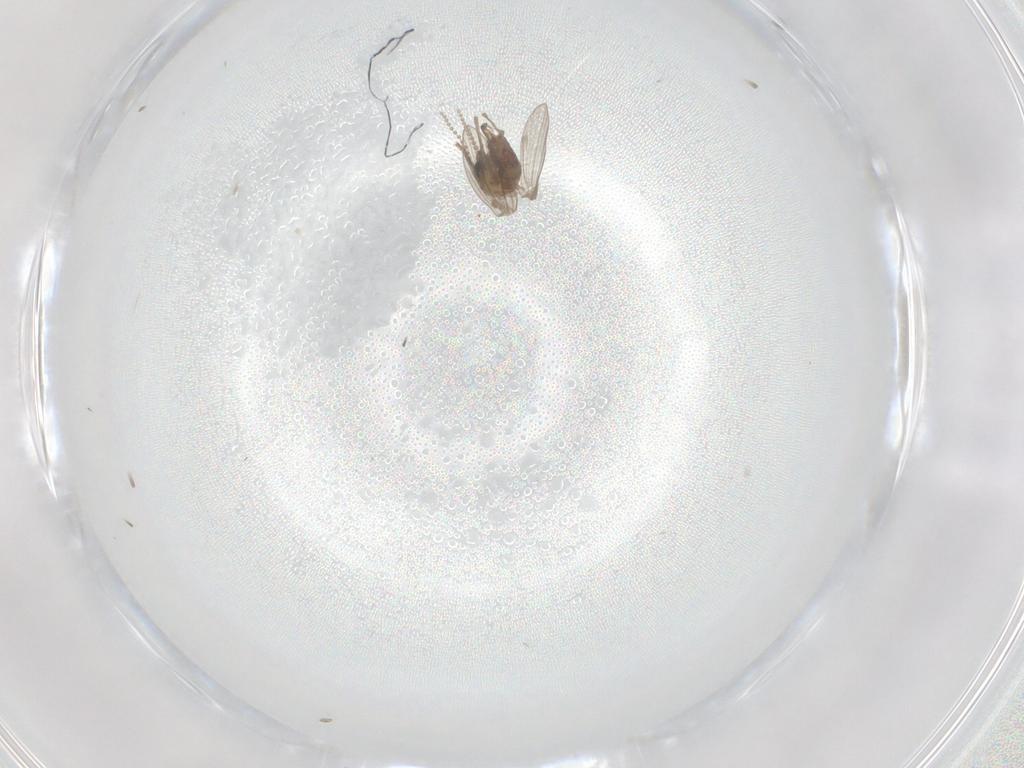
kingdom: Animalia
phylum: Arthropoda
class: Insecta
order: Diptera
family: Psychodidae
